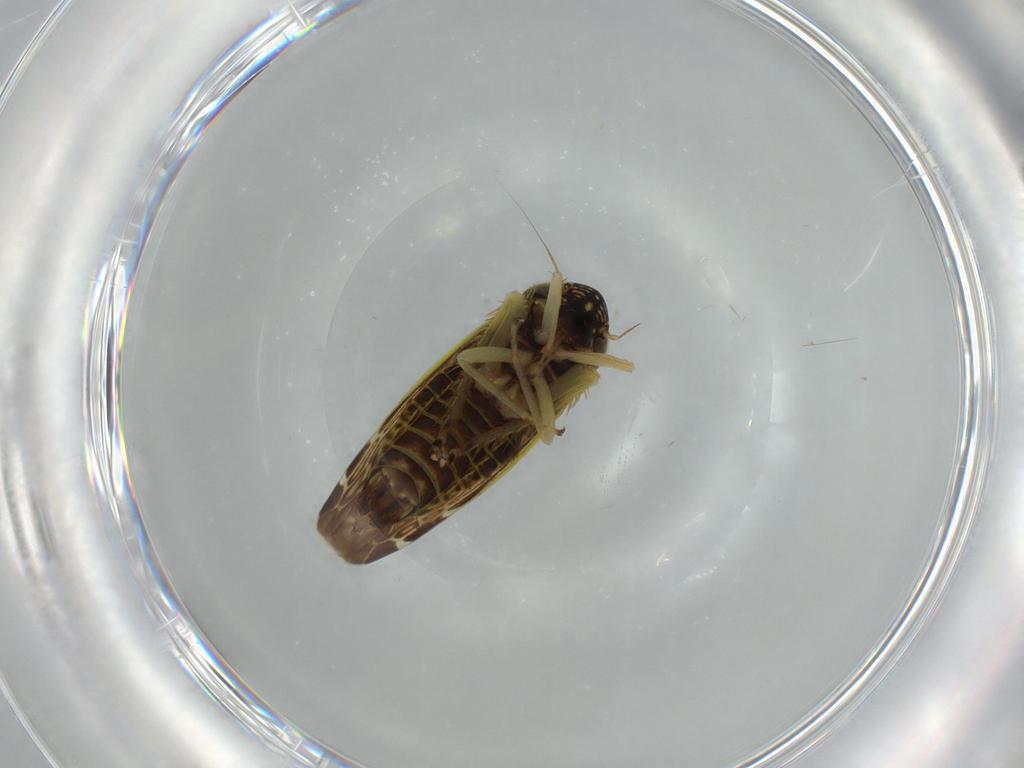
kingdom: Animalia
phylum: Arthropoda
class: Insecta
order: Hemiptera
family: Cicadellidae
